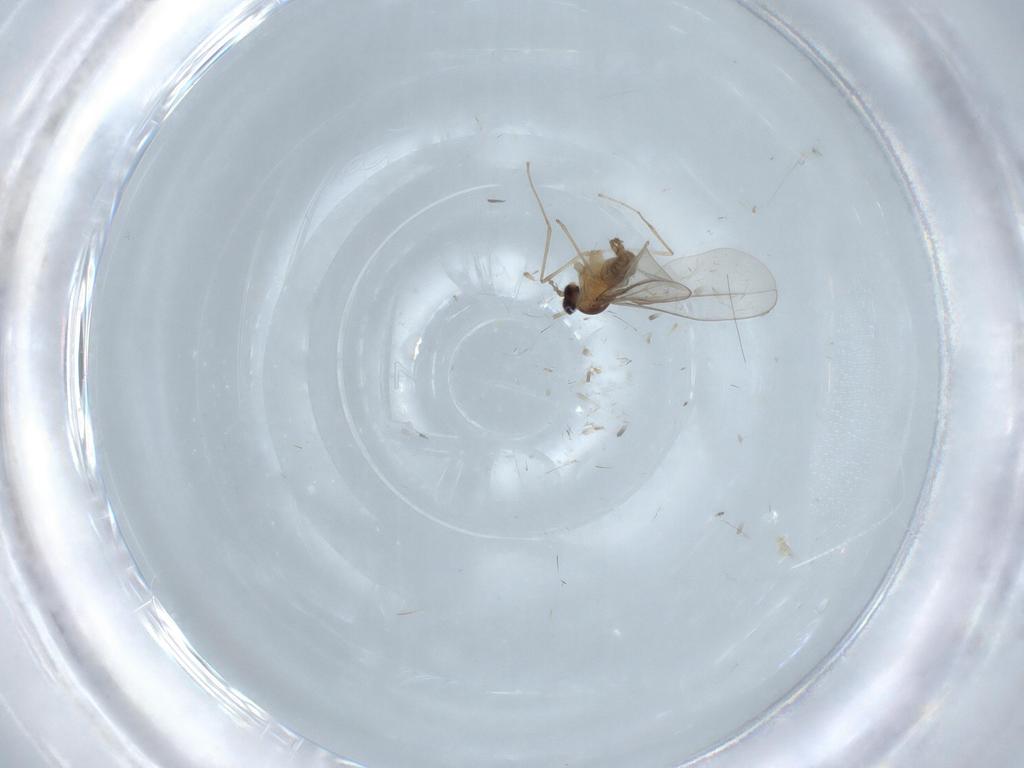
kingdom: Animalia
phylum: Arthropoda
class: Insecta
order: Diptera
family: Cecidomyiidae
